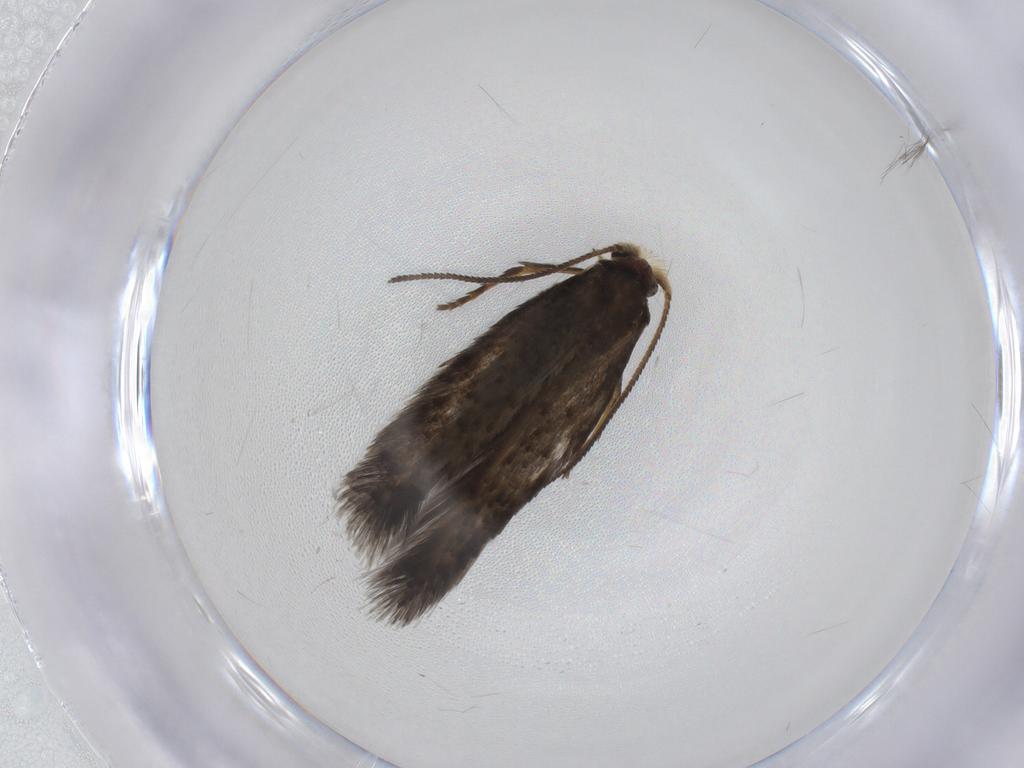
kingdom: Animalia
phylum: Arthropoda
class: Insecta
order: Lepidoptera
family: Nepticulidae
